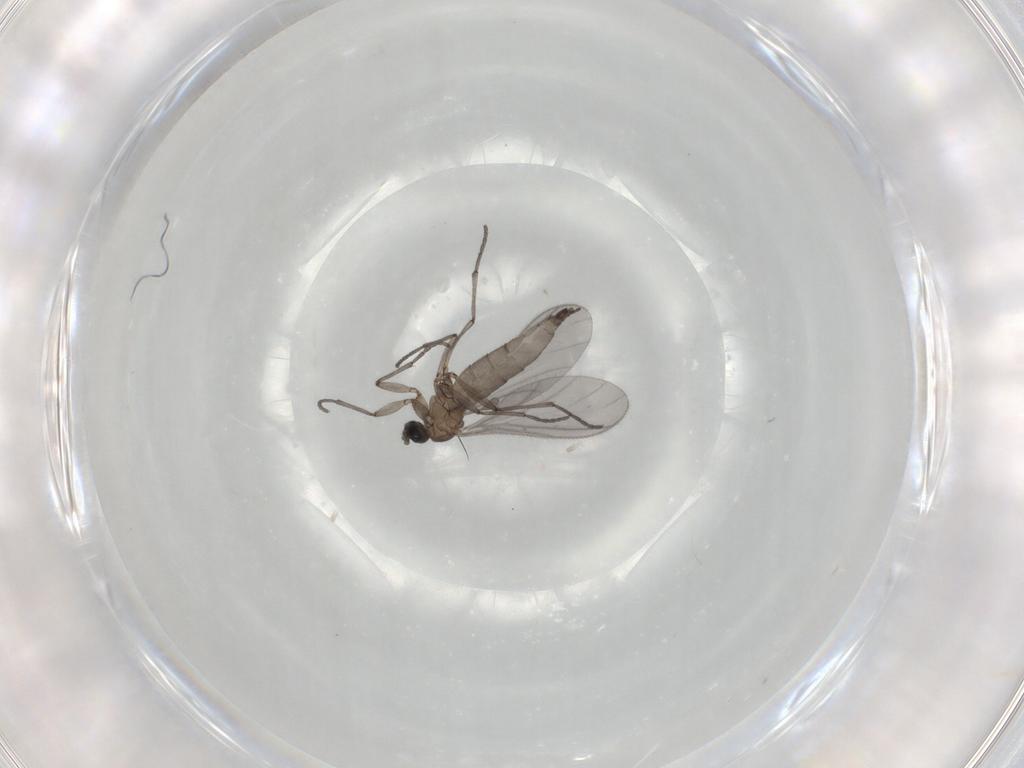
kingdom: Animalia
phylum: Arthropoda
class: Insecta
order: Diptera
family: Sciaridae
